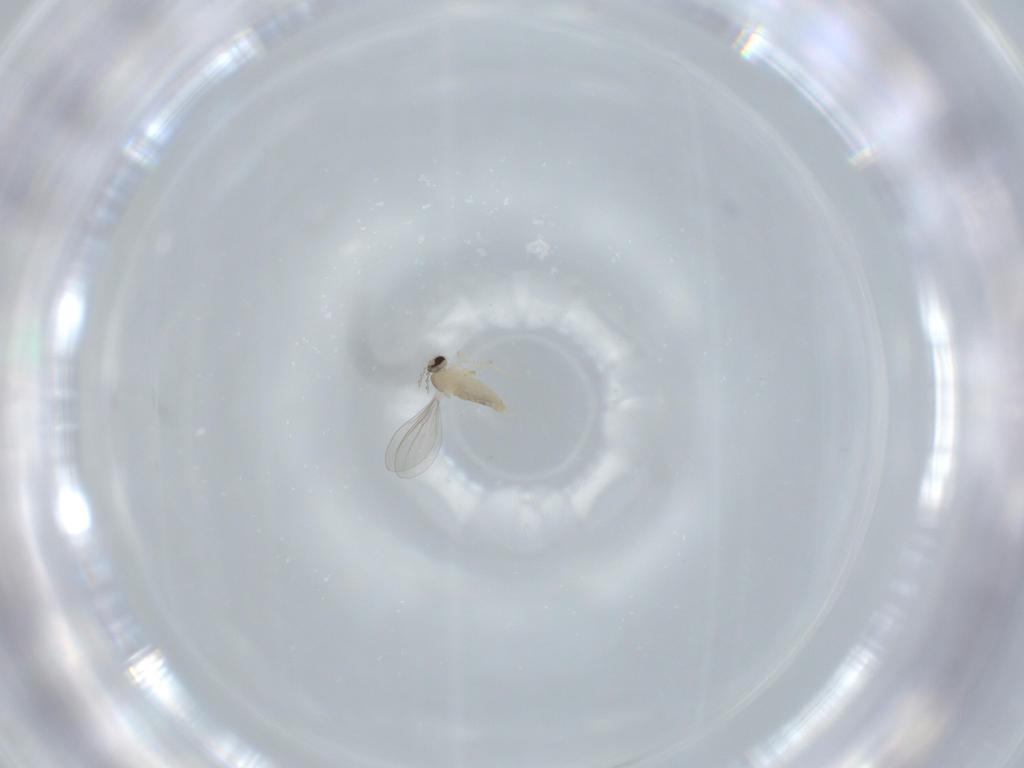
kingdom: Animalia
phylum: Arthropoda
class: Insecta
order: Diptera
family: Cecidomyiidae
